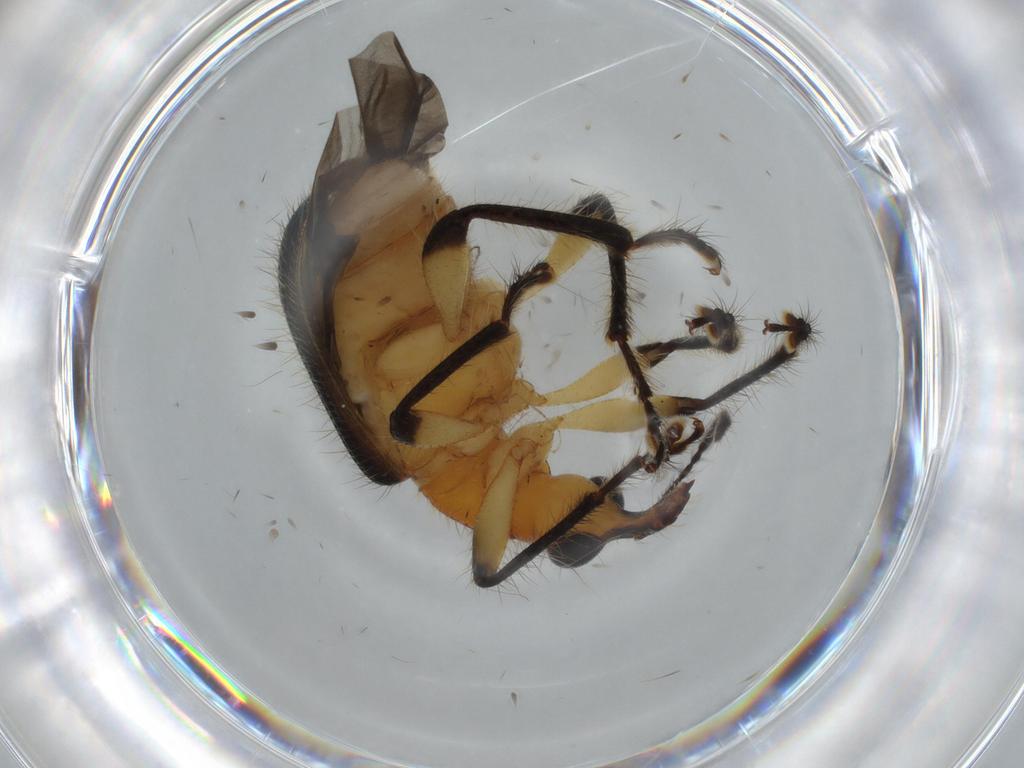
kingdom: Animalia
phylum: Arthropoda
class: Insecta
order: Coleoptera
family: Attelabidae
